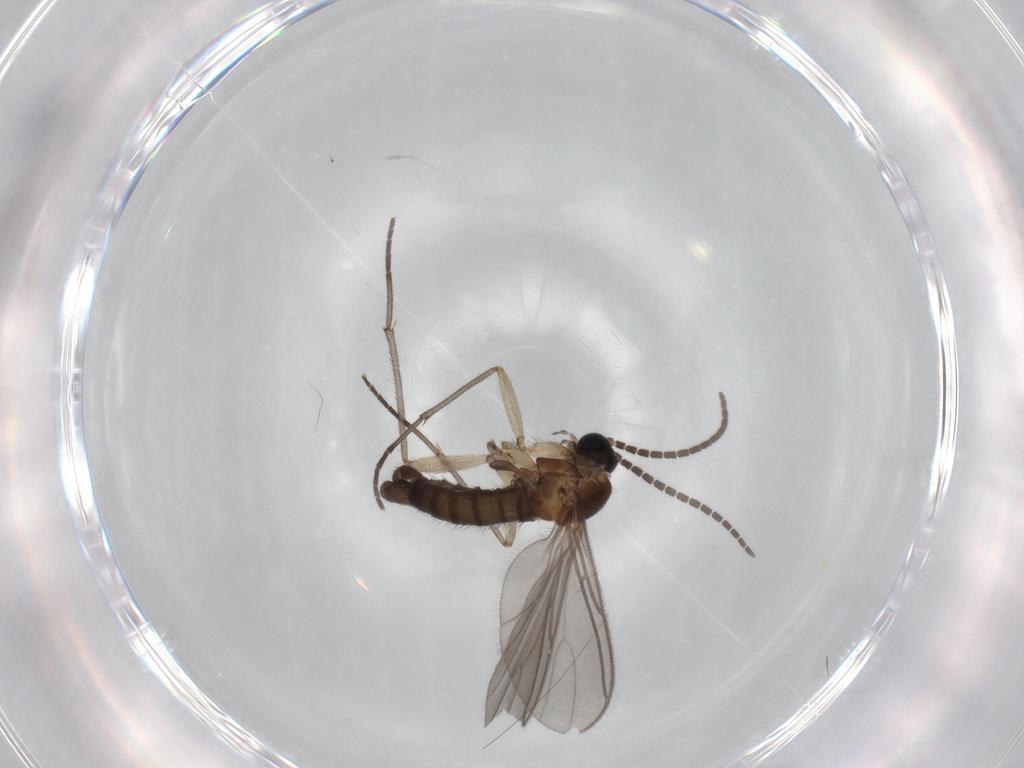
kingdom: Animalia
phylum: Arthropoda
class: Insecta
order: Diptera
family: Sciaridae
